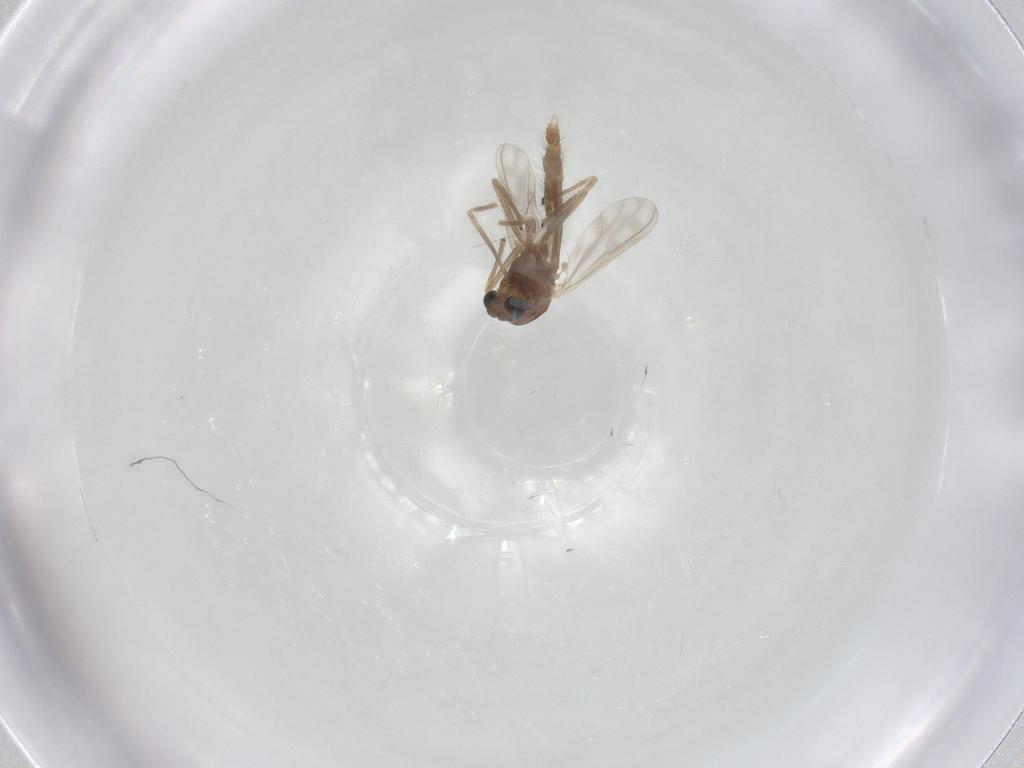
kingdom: Animalia
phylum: Arthropoda
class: Insecta
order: Diptera
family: Chironomidae
